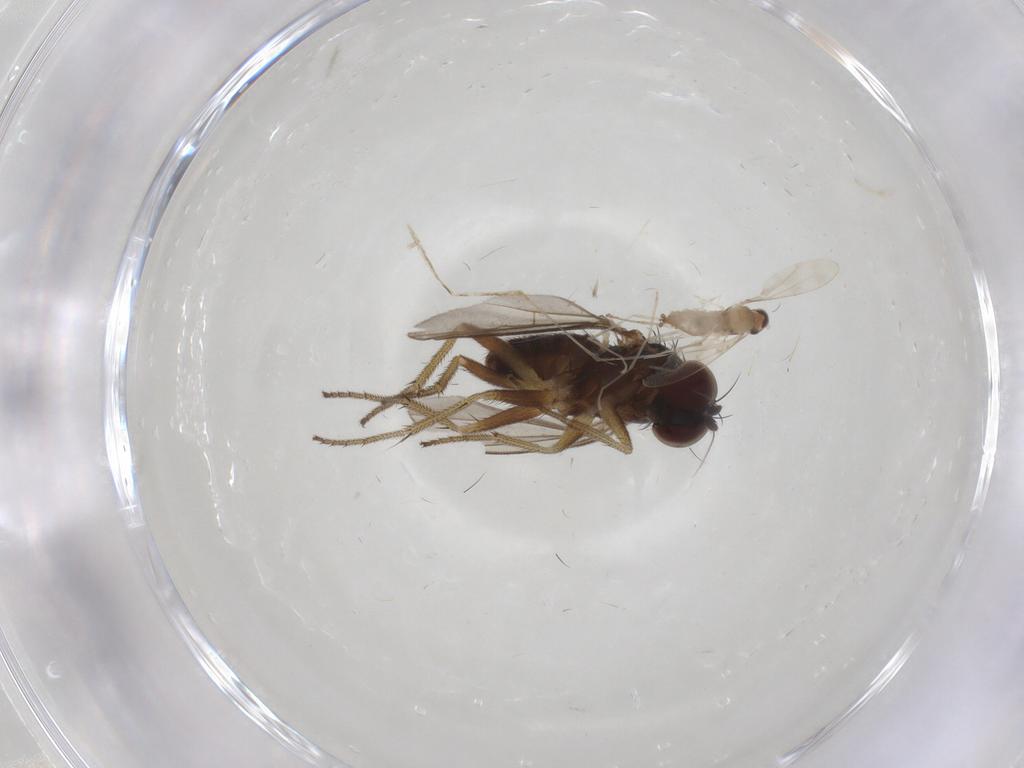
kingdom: Animalia
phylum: Arthropoda
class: Insecta
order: Diptera
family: Cecidomyiidae
